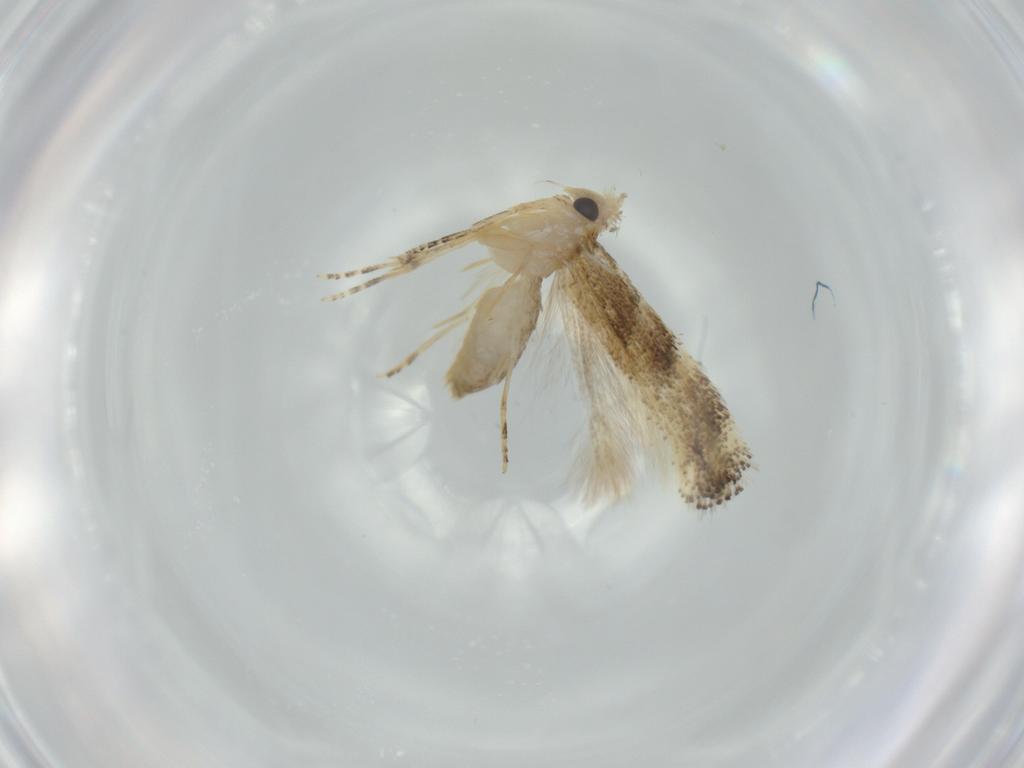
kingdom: Animalia
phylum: Arthropoda
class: Insecta
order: Lepidoptera
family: Bucculatricidae
